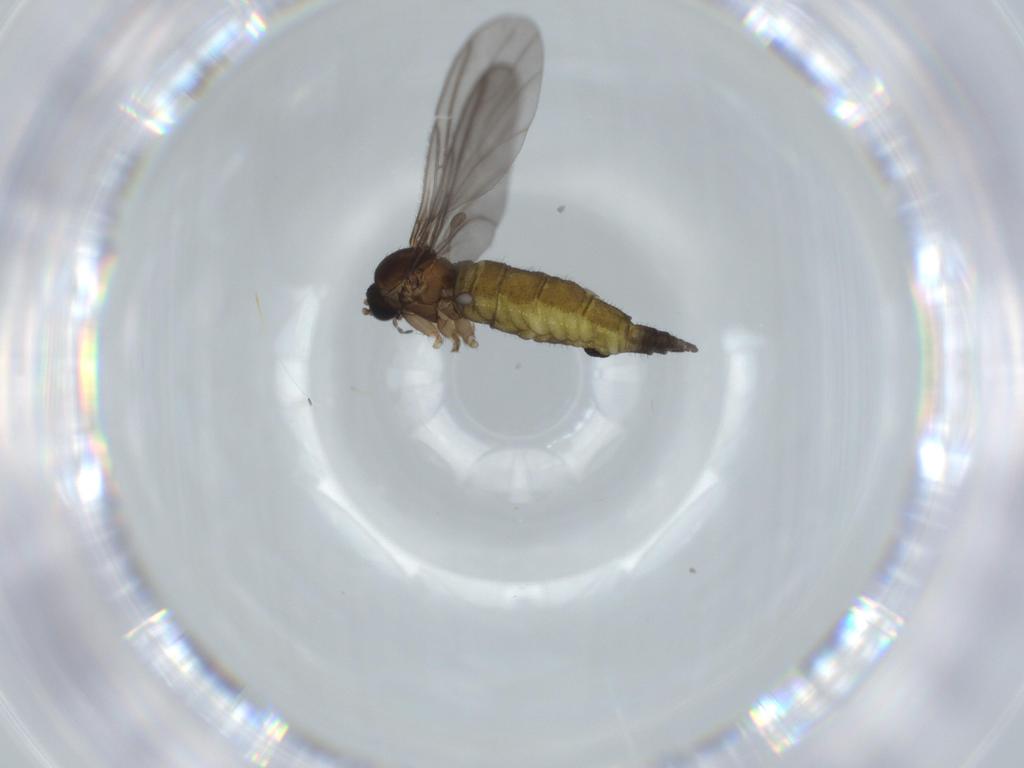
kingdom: Animalia
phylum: Arthropoda
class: Insecta
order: Diptera
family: Sciaridae
